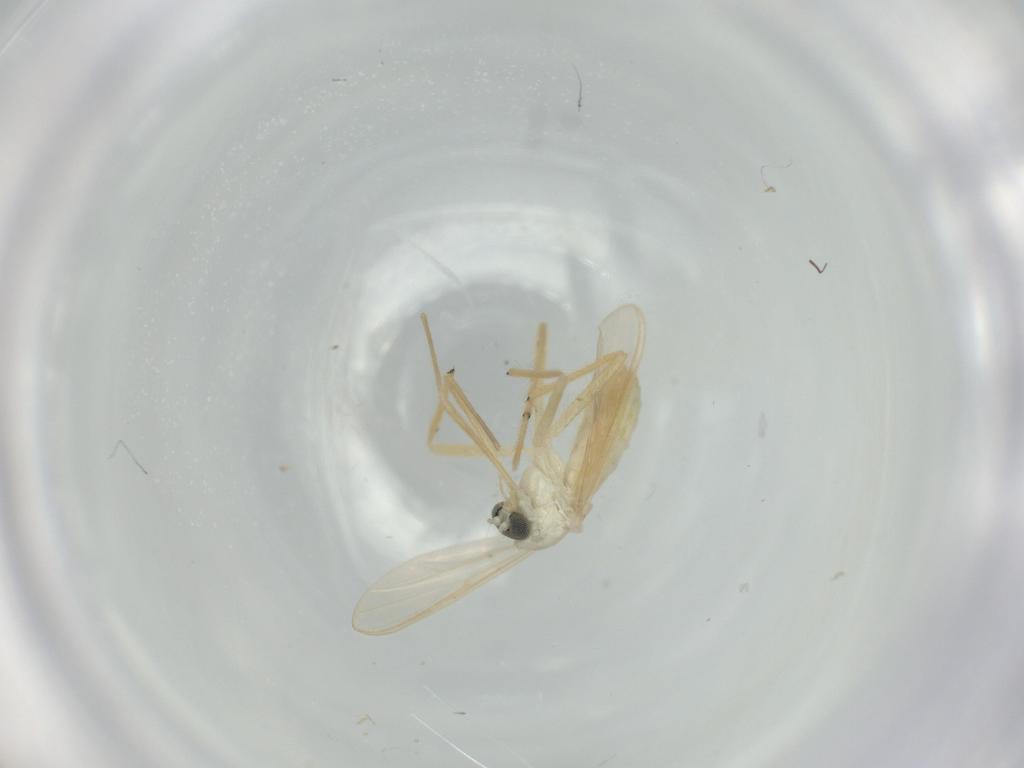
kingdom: Animalia
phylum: Arthropoda
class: Insecta
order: Diptera
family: Chironomidae
